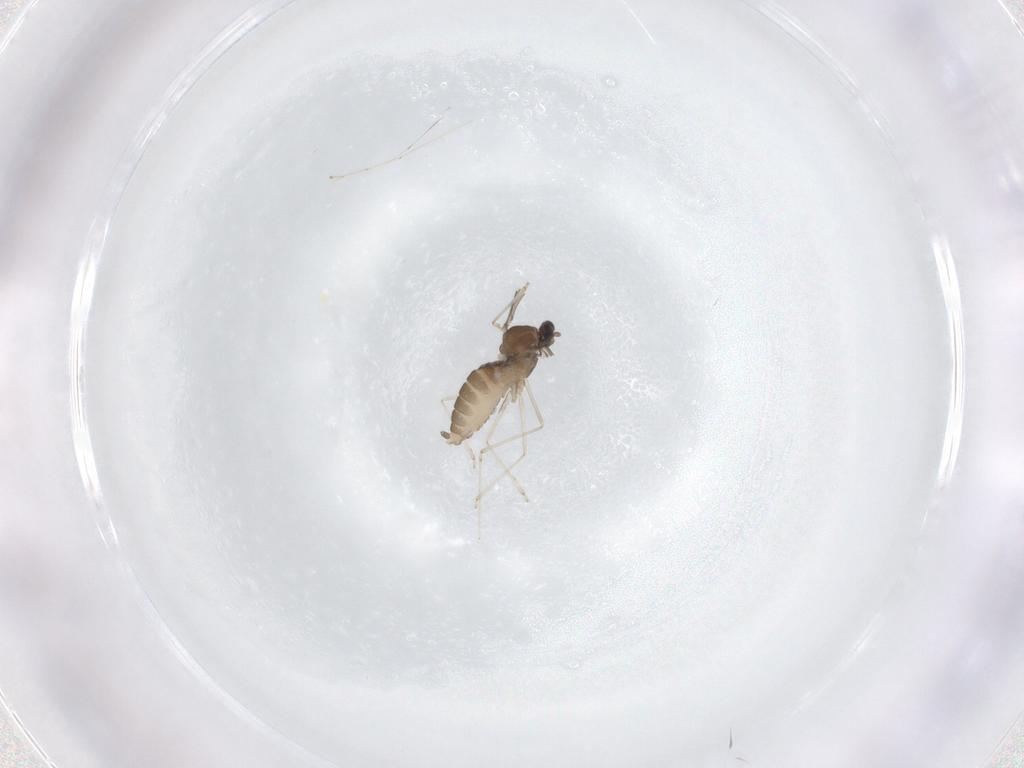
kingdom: Animalia
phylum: Arthropoda
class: Insecta
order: Diptera
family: Cecidomyiidae
